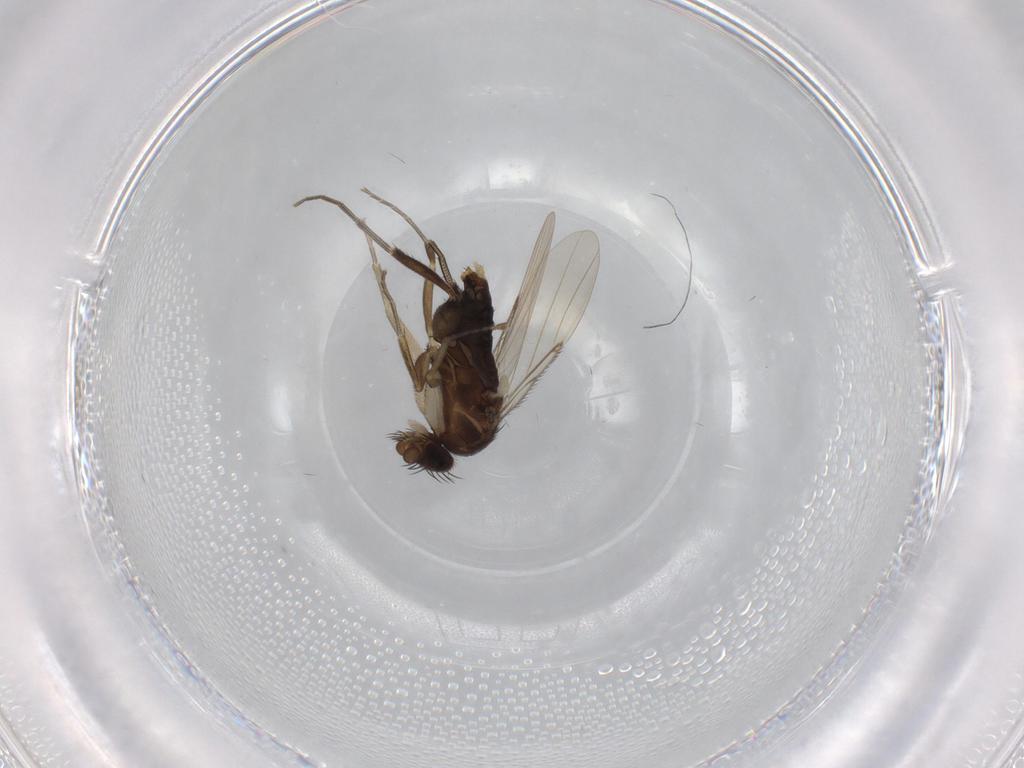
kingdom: Animalia
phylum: Arthropoda
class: Insecta
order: Diptera
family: Phoridae
